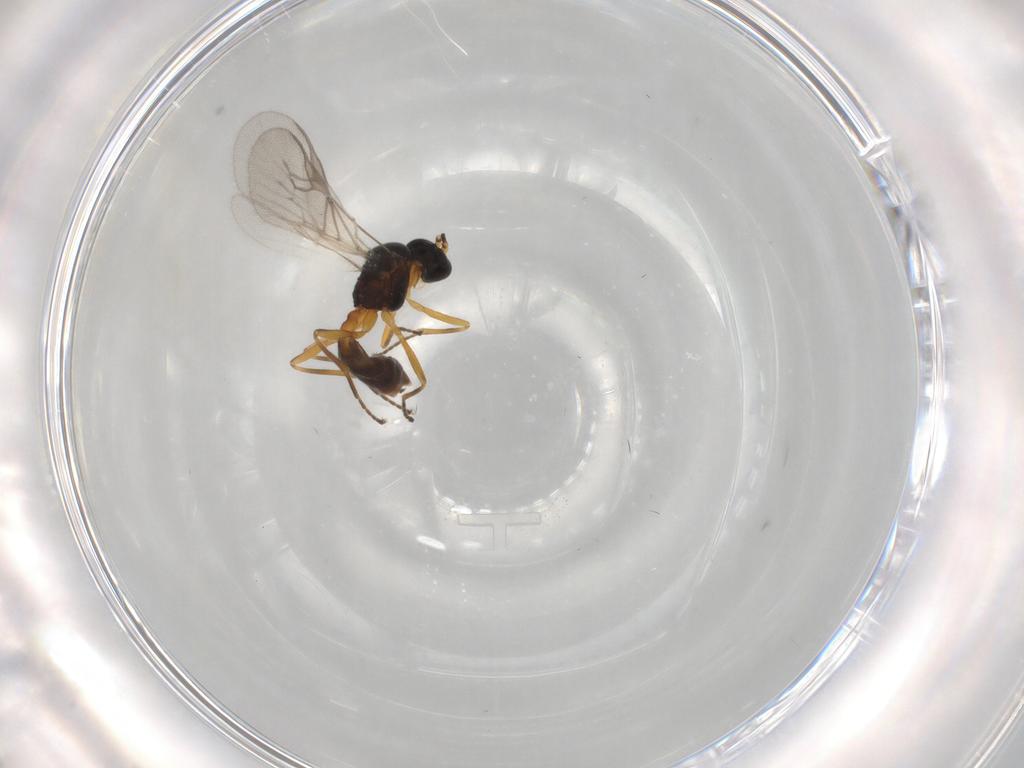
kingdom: Animalia
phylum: Arthropoda
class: Insecta
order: Hymenoptera
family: Braconidae
